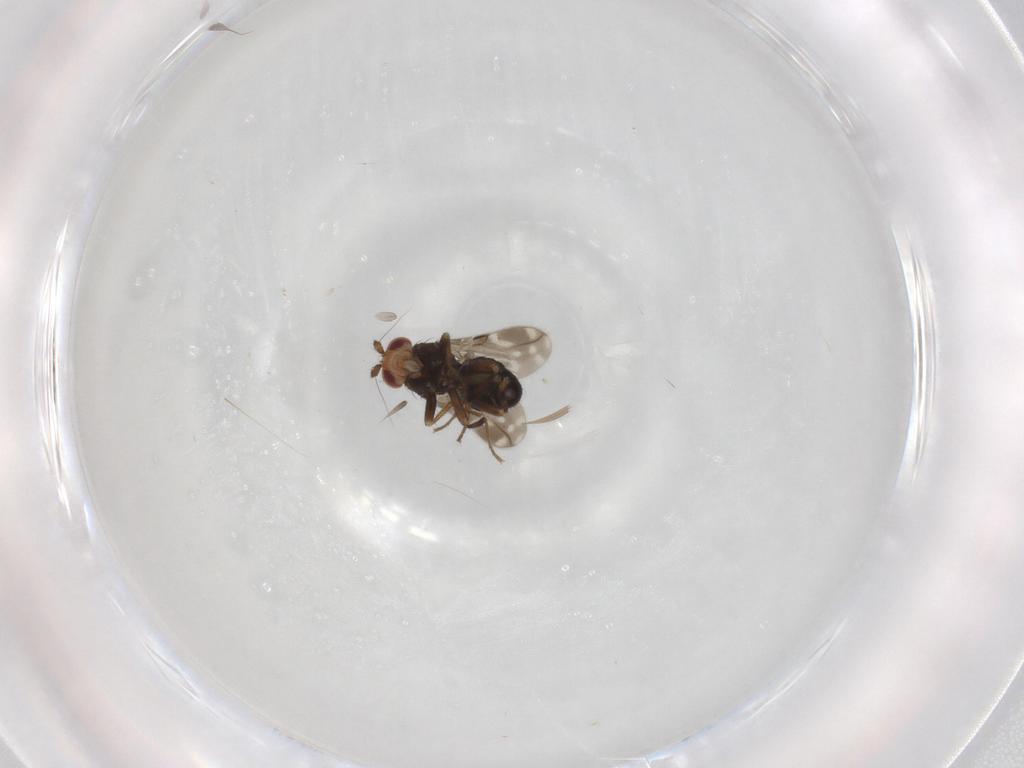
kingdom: Animalia
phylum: Arthropoda
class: Insecta
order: Diptera
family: Sphaeroceridae
